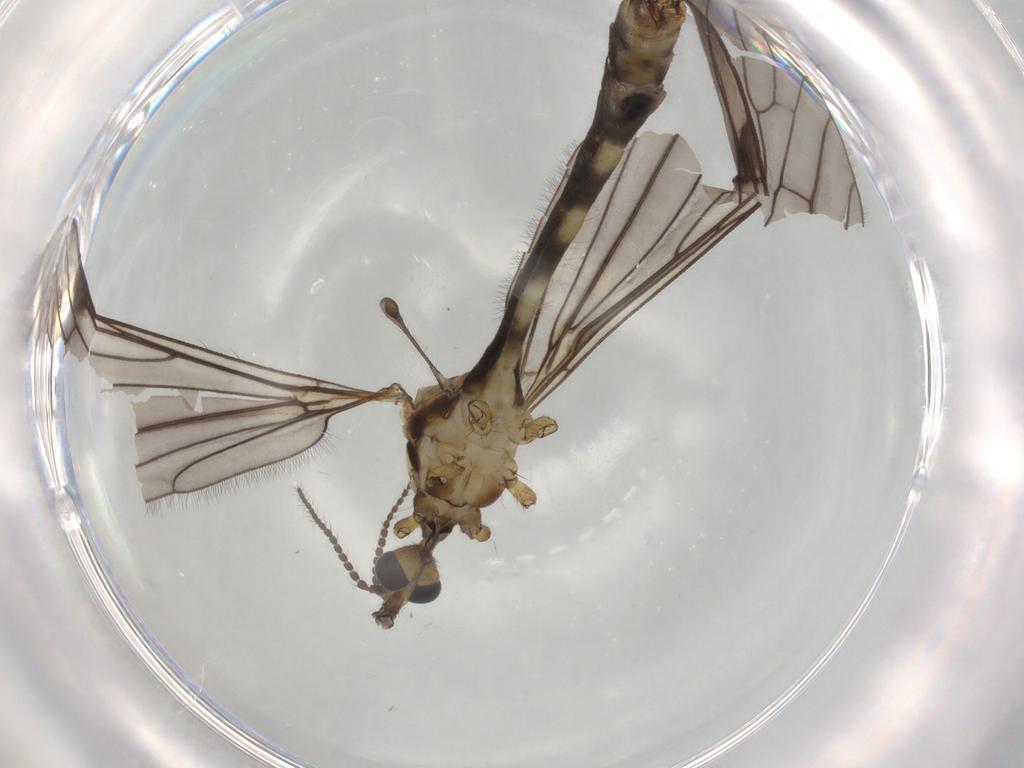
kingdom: Animalia
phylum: Arthropoda
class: Insecta
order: Diptera
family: Limoniidae
